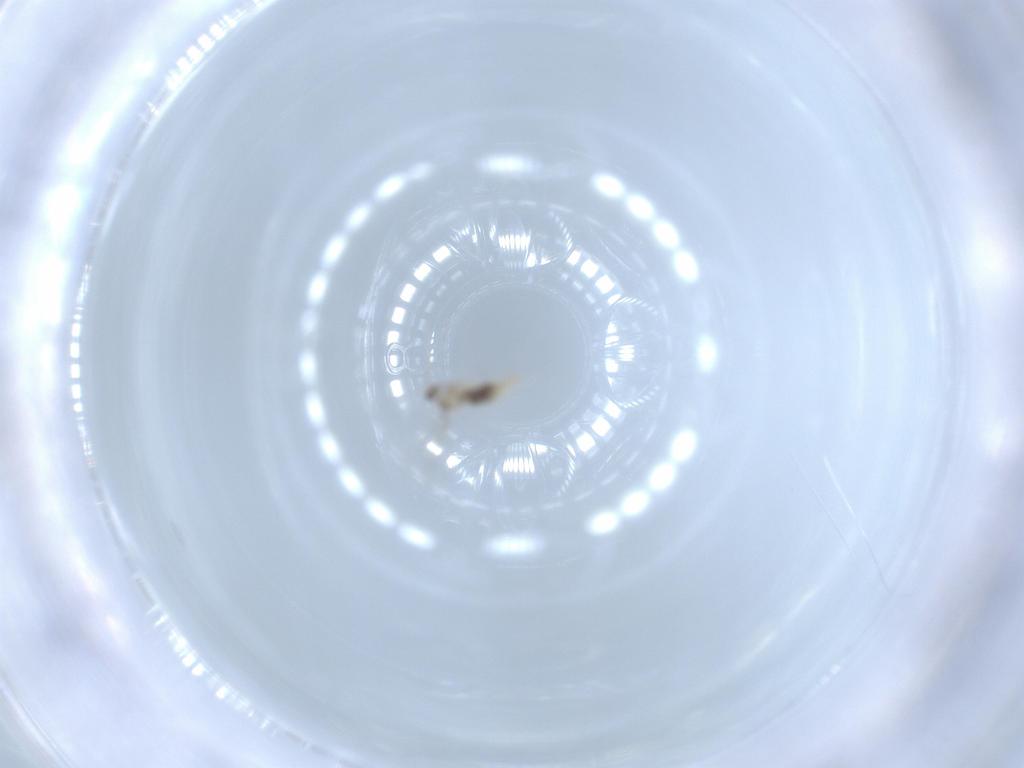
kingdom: Animalia
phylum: Arthropoda
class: Insecta
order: Diptera
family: Cecidomyiidae
